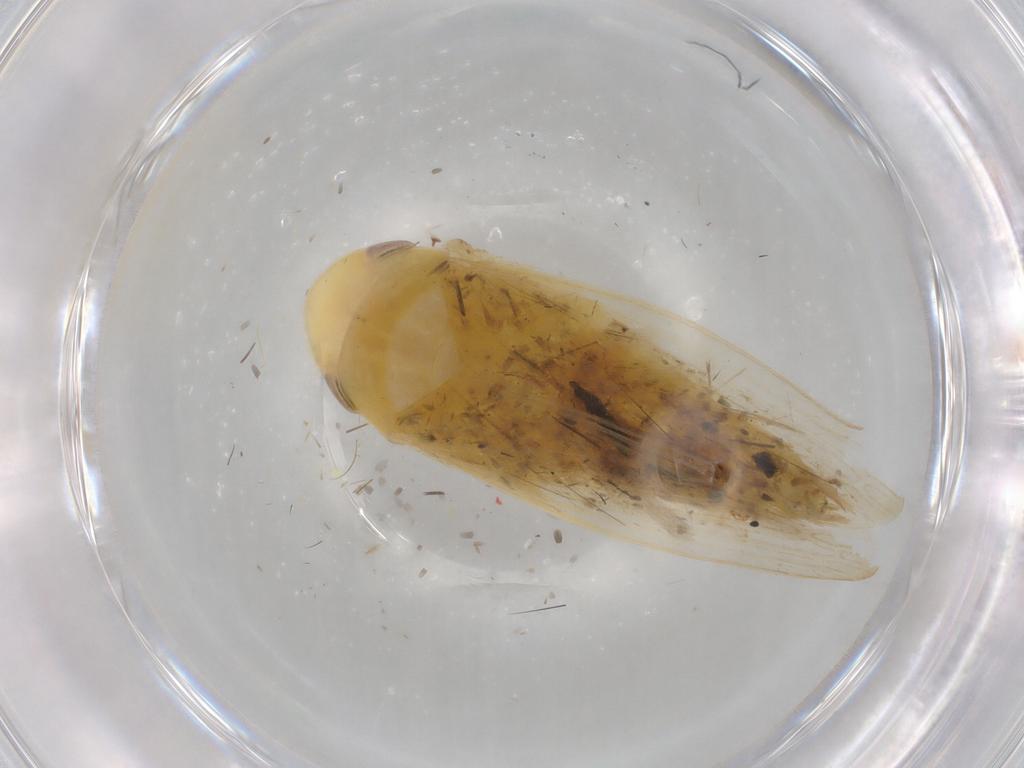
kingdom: Animalia
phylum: Arthropoda
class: Insecta
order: Hemiptera
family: Cicadellidae
